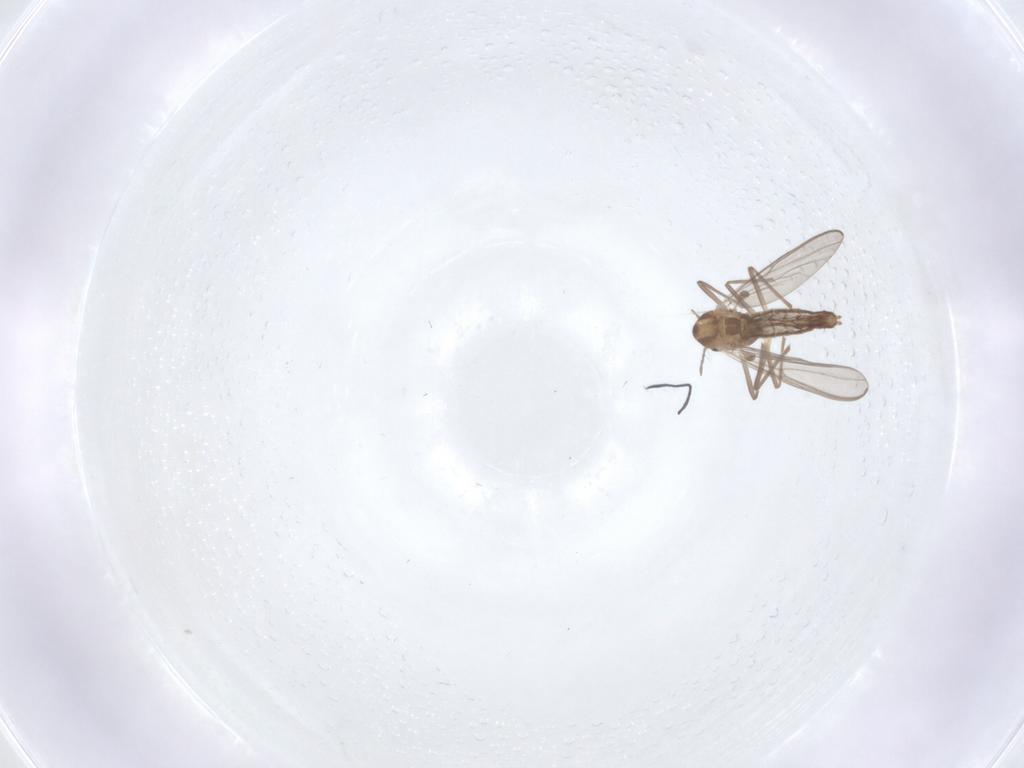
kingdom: Animalia
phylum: Arthropoda
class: Insecta
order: Diptera
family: Chironomidae
